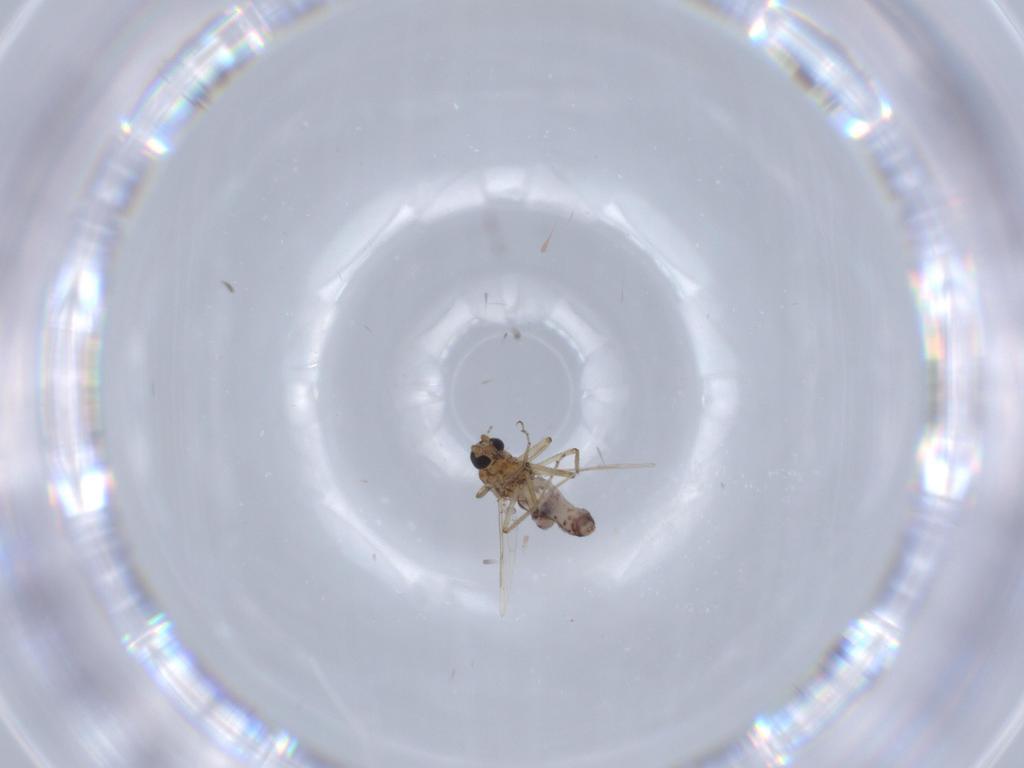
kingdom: Animalia
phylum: Arthropoda
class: Insecta
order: Diptera
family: Ceratopogonidae
